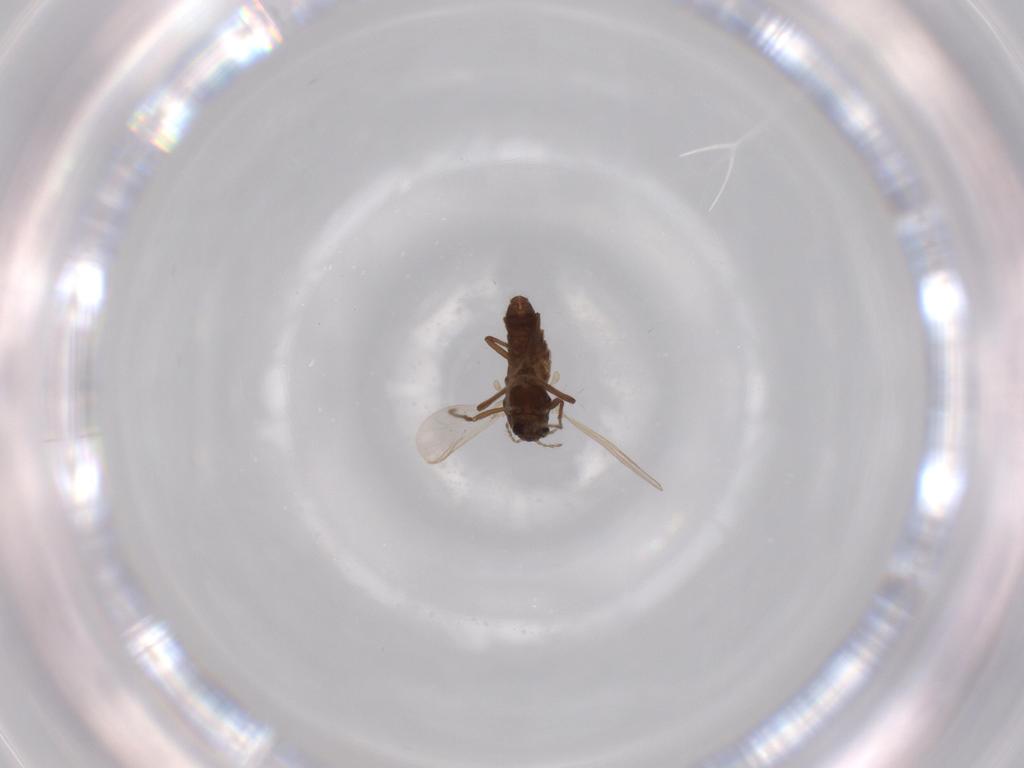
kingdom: Animalia
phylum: Arthropoda
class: Insecta
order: Diptera
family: Chironomidae
